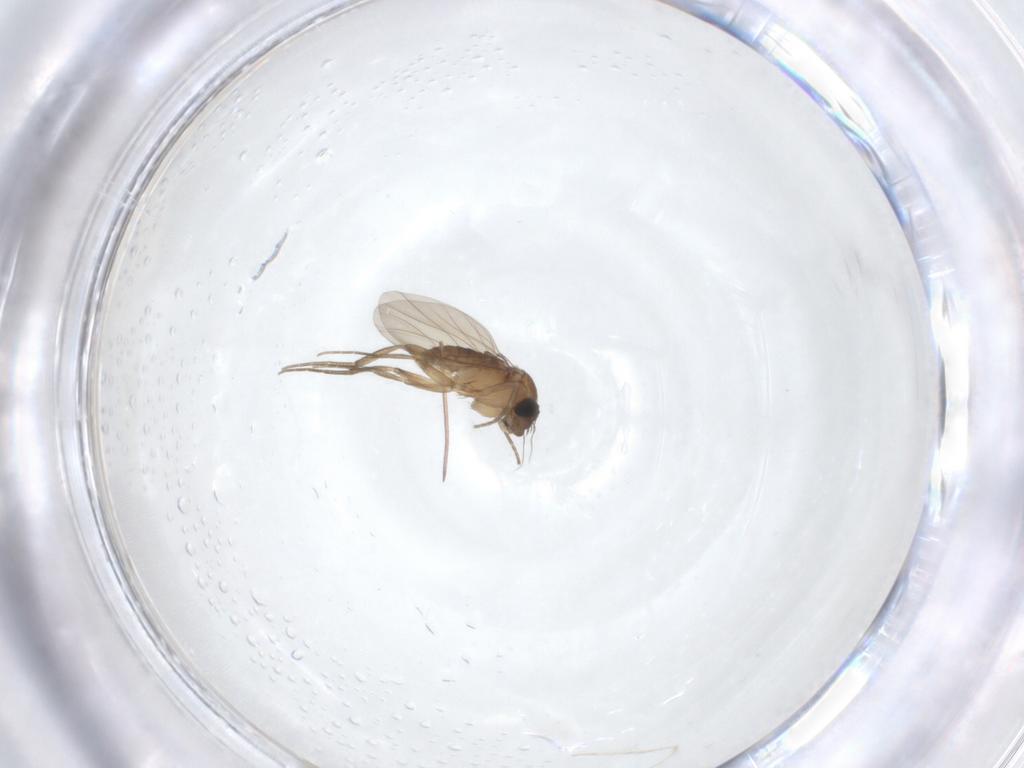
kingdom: Animalia
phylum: Arthropoda
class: Insecta
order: Diptera
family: Phoridae
